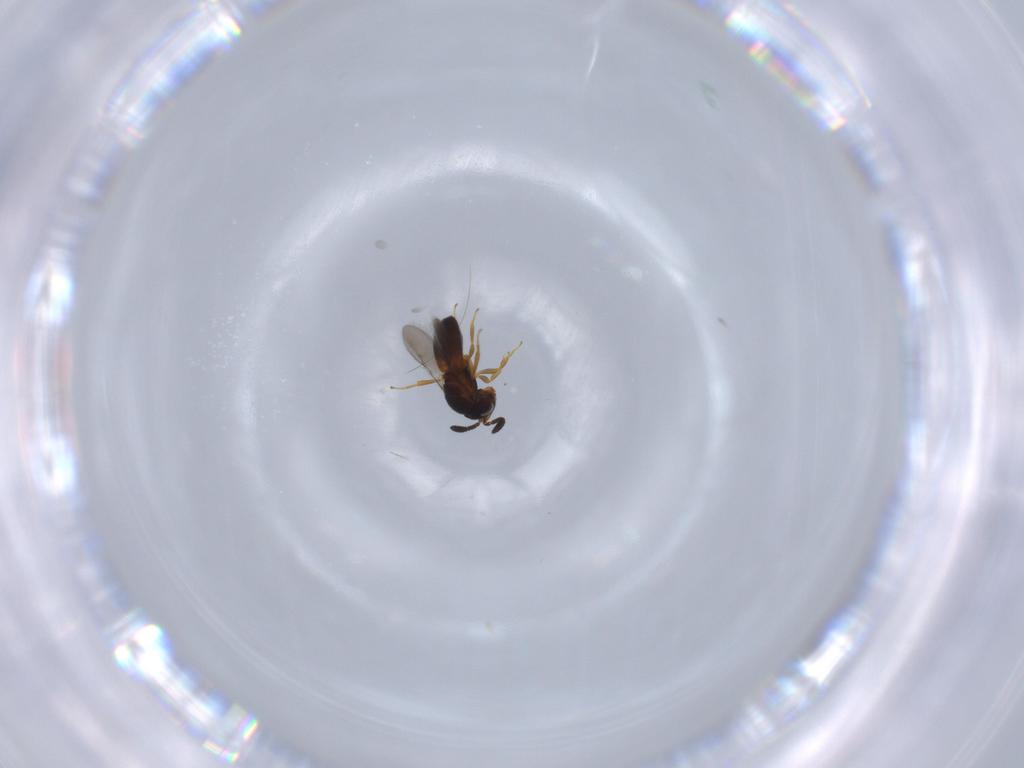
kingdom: Animalia
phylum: Arthropoda
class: Insecta
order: Hymenoptera
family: Scelionidae
